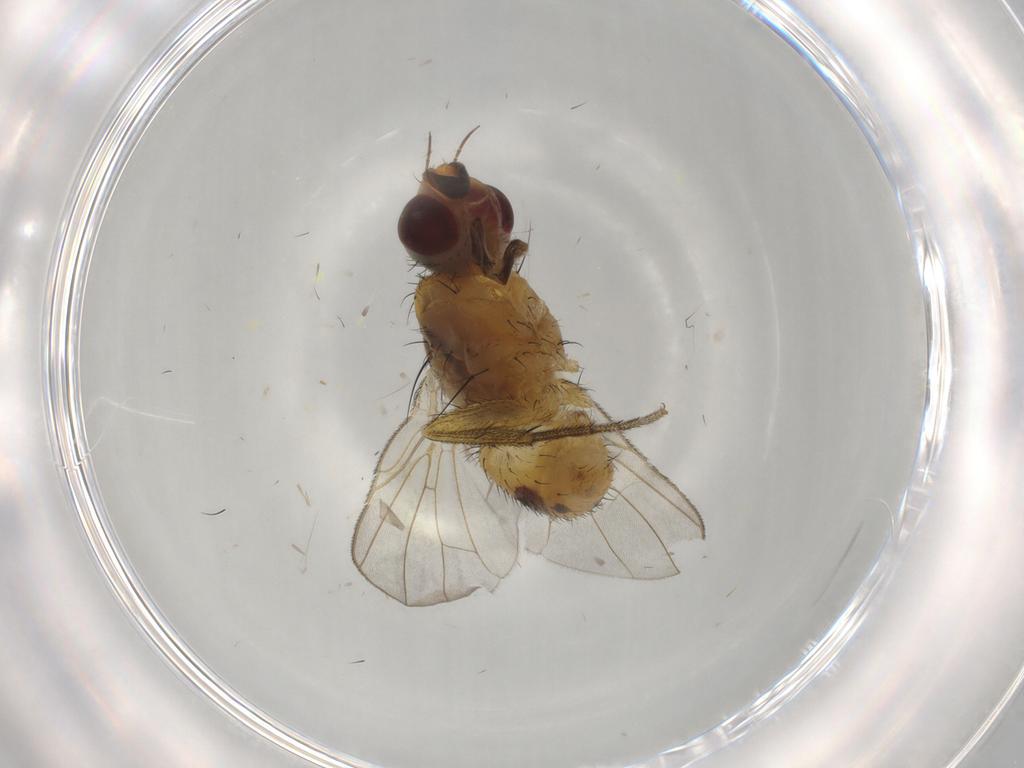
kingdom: Animalia
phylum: Arthropoda
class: Insecta
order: Diptera
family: Muscidae
